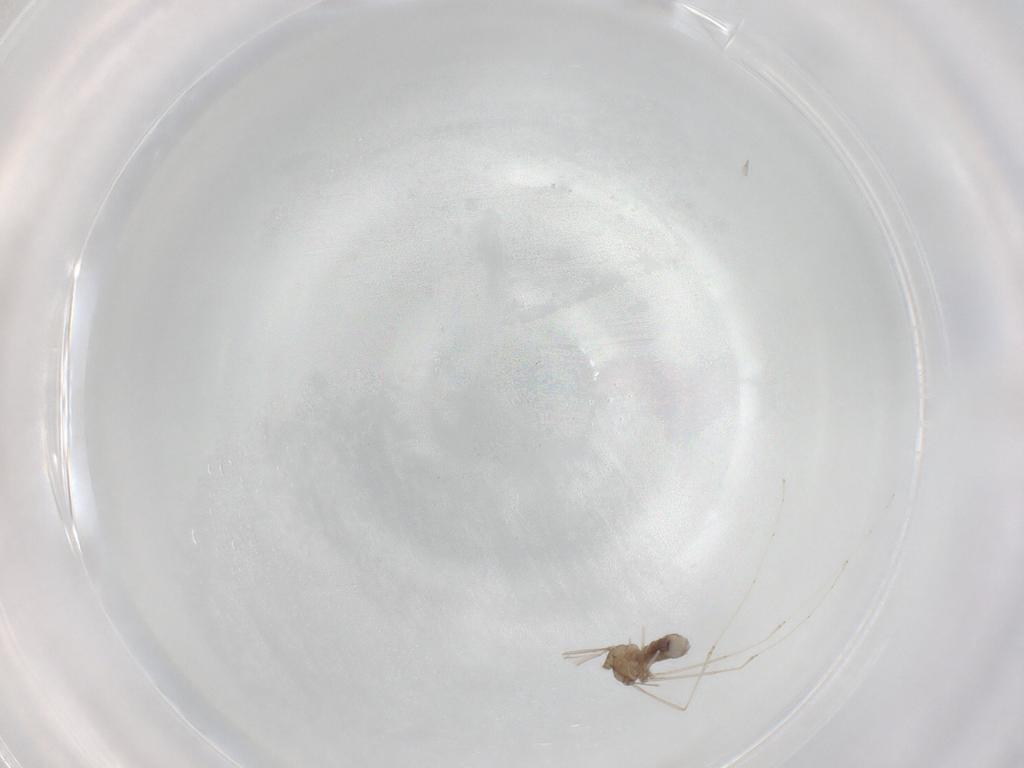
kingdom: Animalia
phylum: Arthropoda
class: Insecta
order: Diptera
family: Cecidomyiidae
